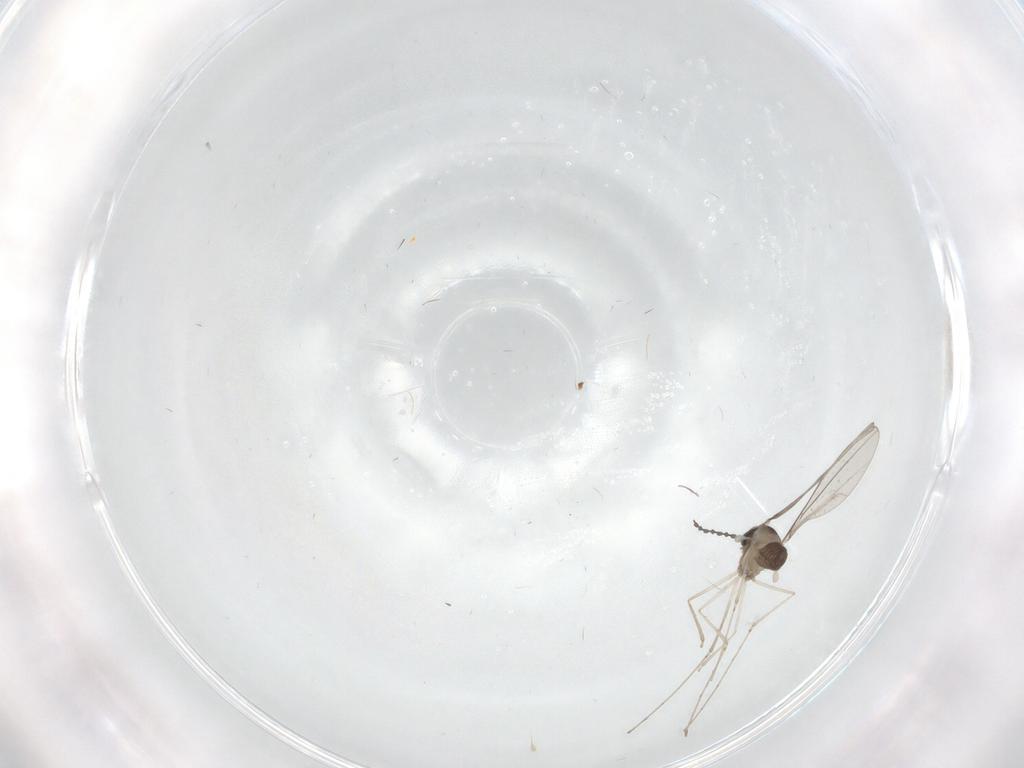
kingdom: Animalia
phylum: Arthropoda
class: Insecta
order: Diptera
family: Cecidomyiidae
